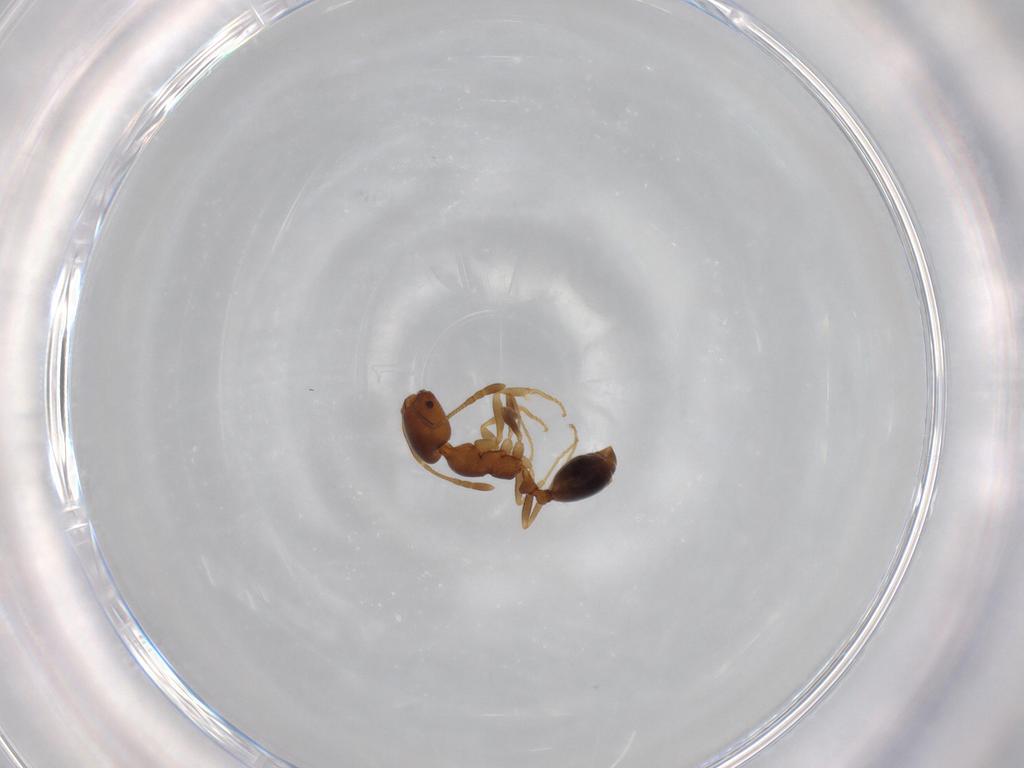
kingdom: Animalia
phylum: Arthropoda
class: Insecta
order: Hymenoptera
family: Formicidae
